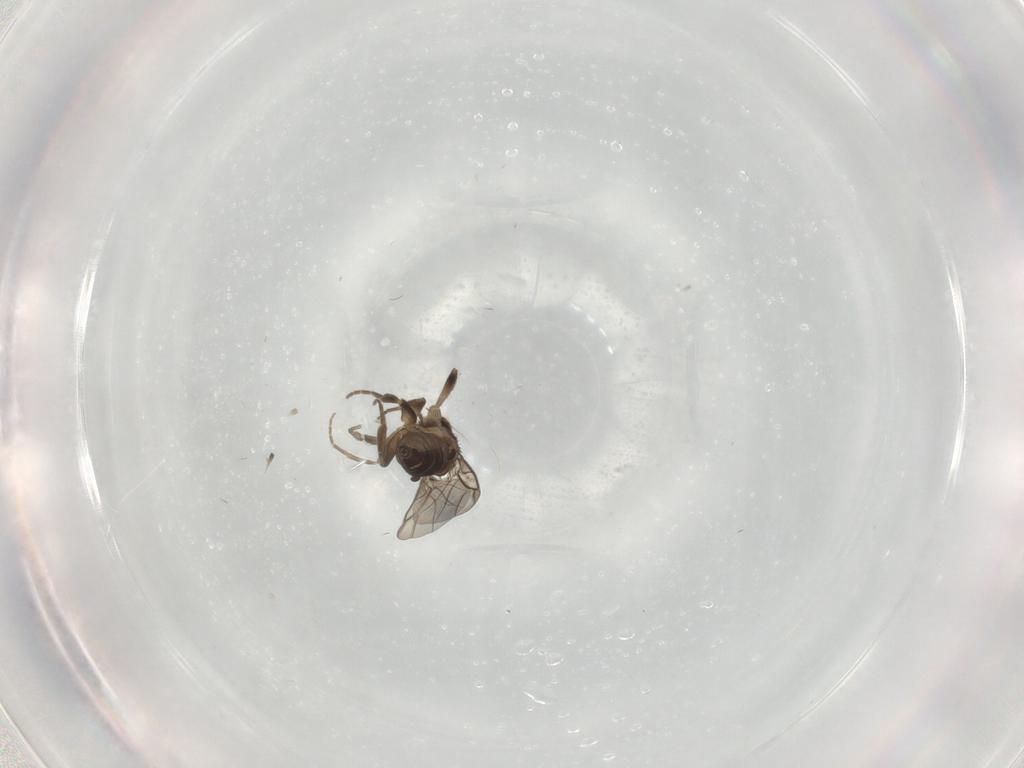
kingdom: Animalia
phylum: Arthropoda
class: Insecta
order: Diptera
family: Phoridae
